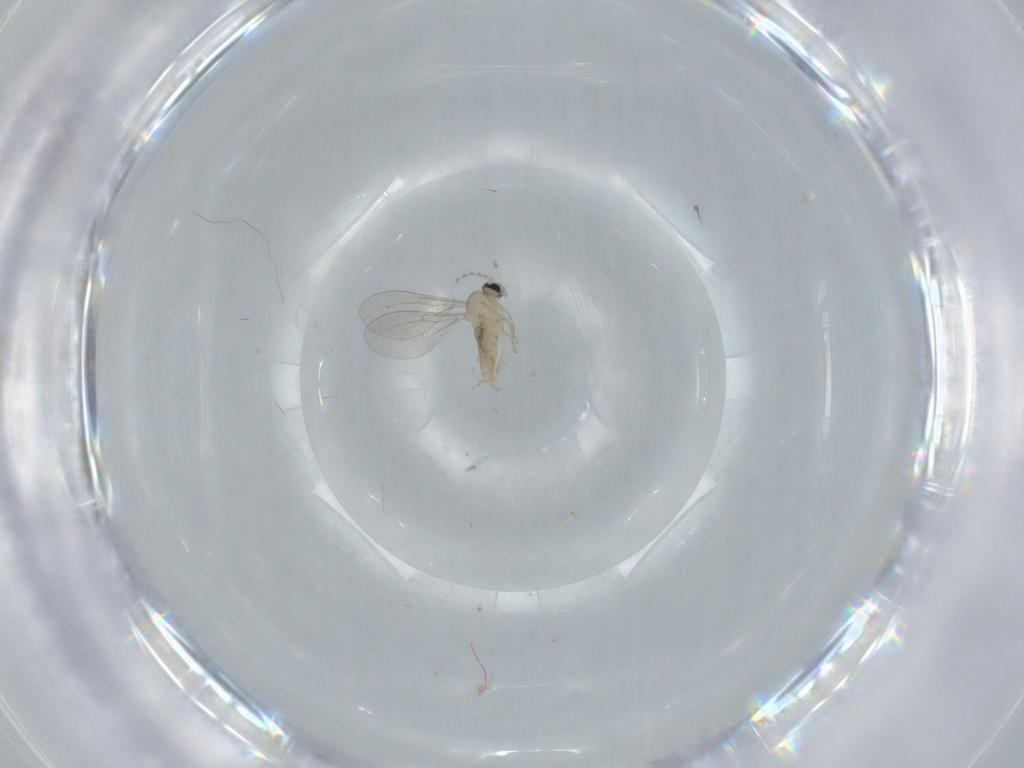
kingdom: Animalia
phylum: Arthropoda
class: Insecta
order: Diptera
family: Cecidomyiidae
